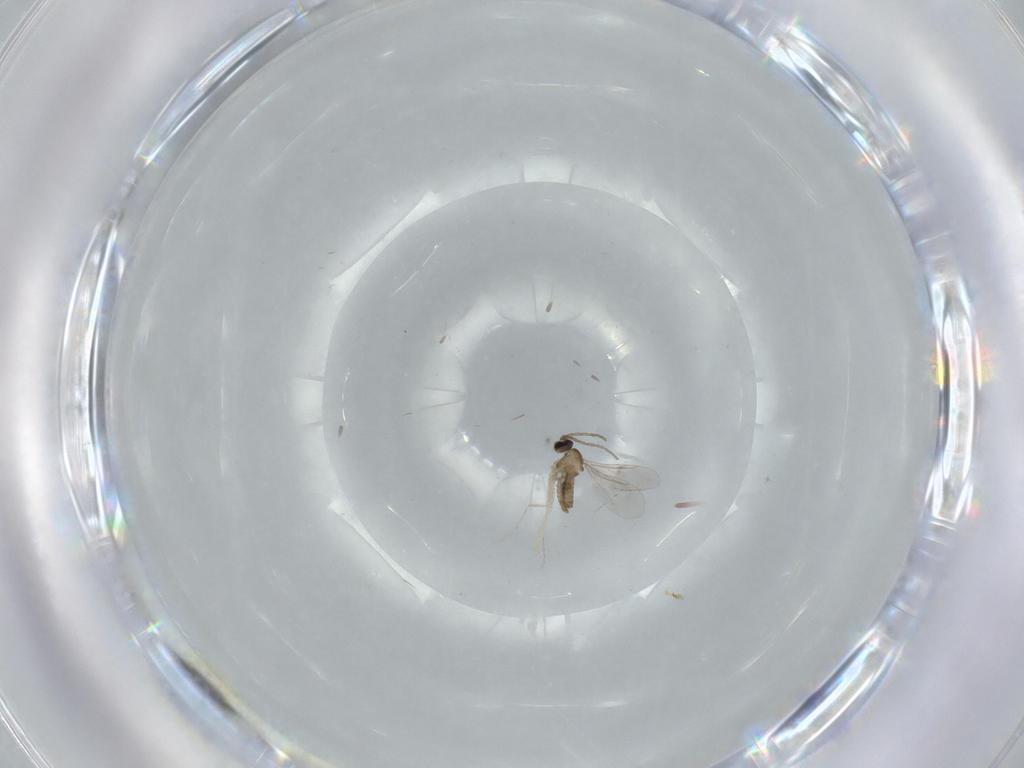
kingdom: Animalia
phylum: Arthropoda
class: Insecta
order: Diptera
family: Cecidomyiidae
